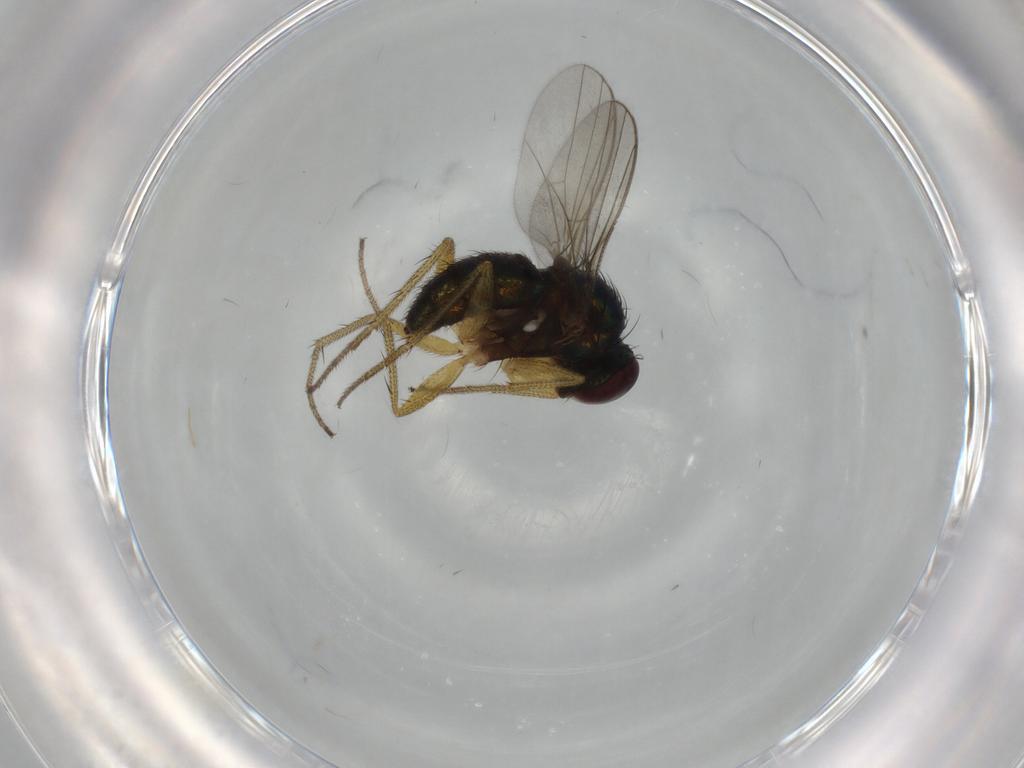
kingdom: Animalia
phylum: Arthropoda
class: Insecta
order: Diptera
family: Dolichopodidae
